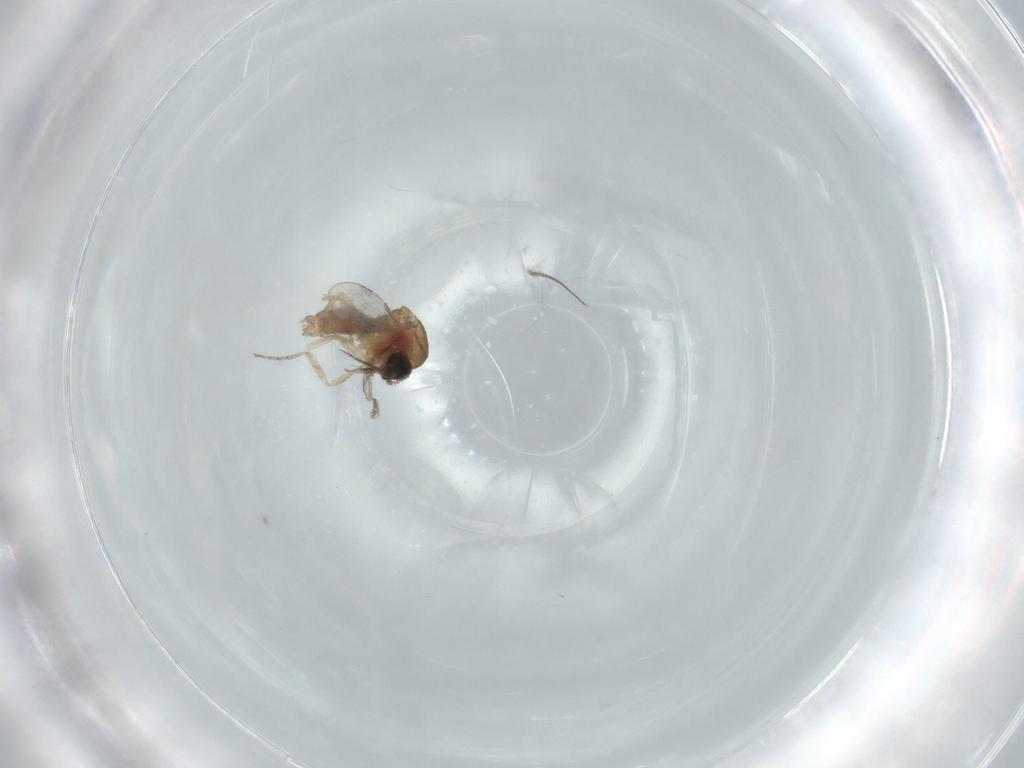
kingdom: Animalia
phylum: Arthropoda
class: Insecta
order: Diptera
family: Ceratopogonidae
